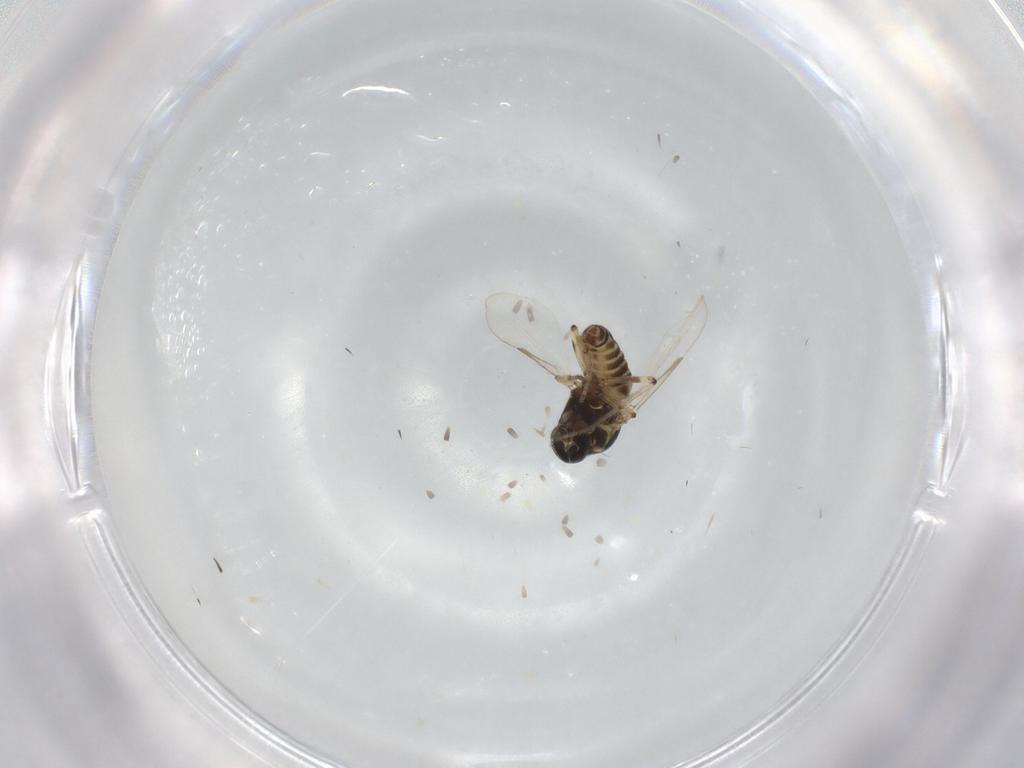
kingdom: Animalia
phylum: Arthropoda
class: Insecta
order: Diptera
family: Ceratopogonidae
